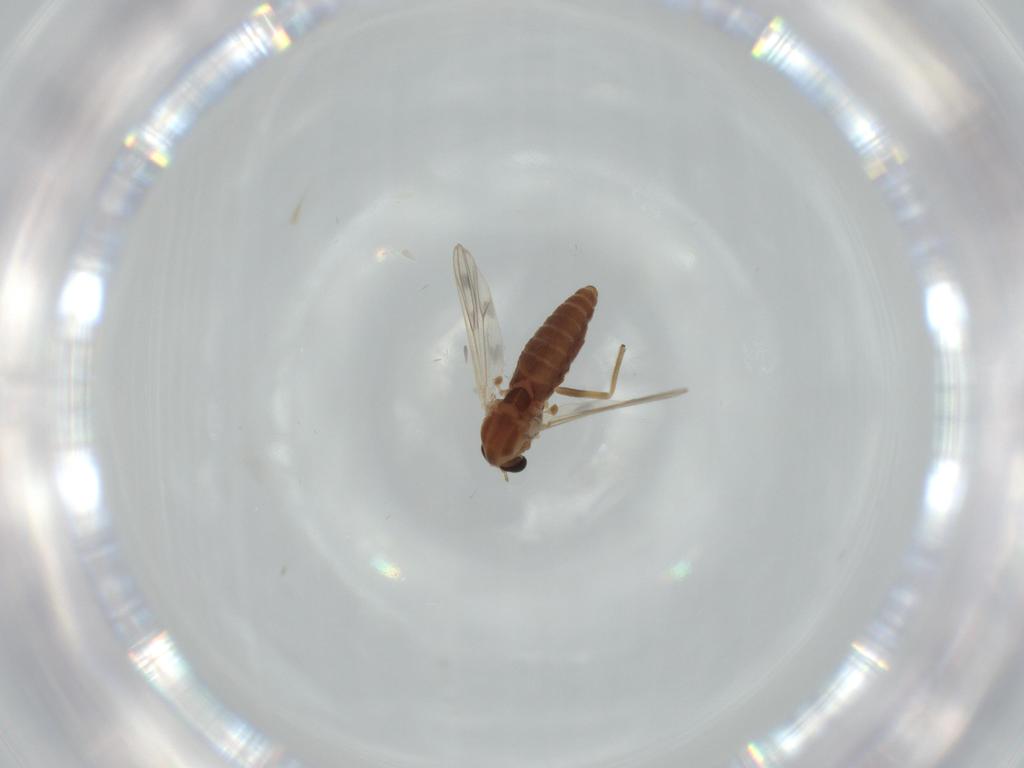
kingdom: Animalia
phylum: Arthropoda
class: Insecta
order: Diptera
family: Chironomidae
